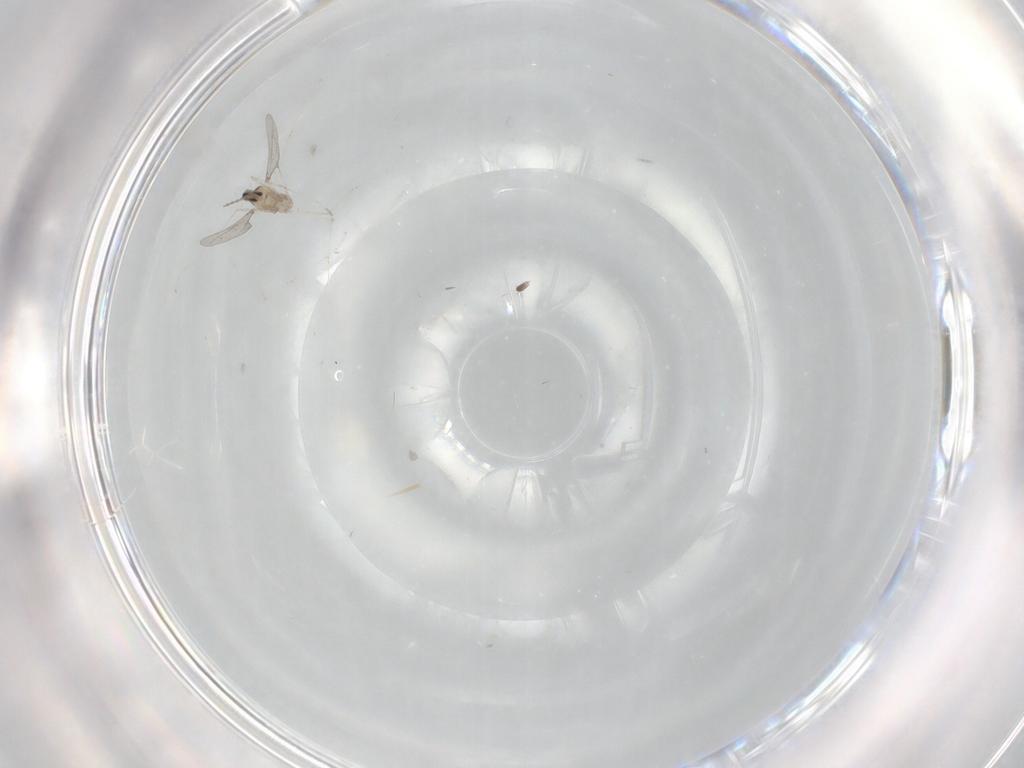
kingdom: Animalia
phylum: Arthropoda
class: Insecta
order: Diptera
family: Cecidomyiidae
